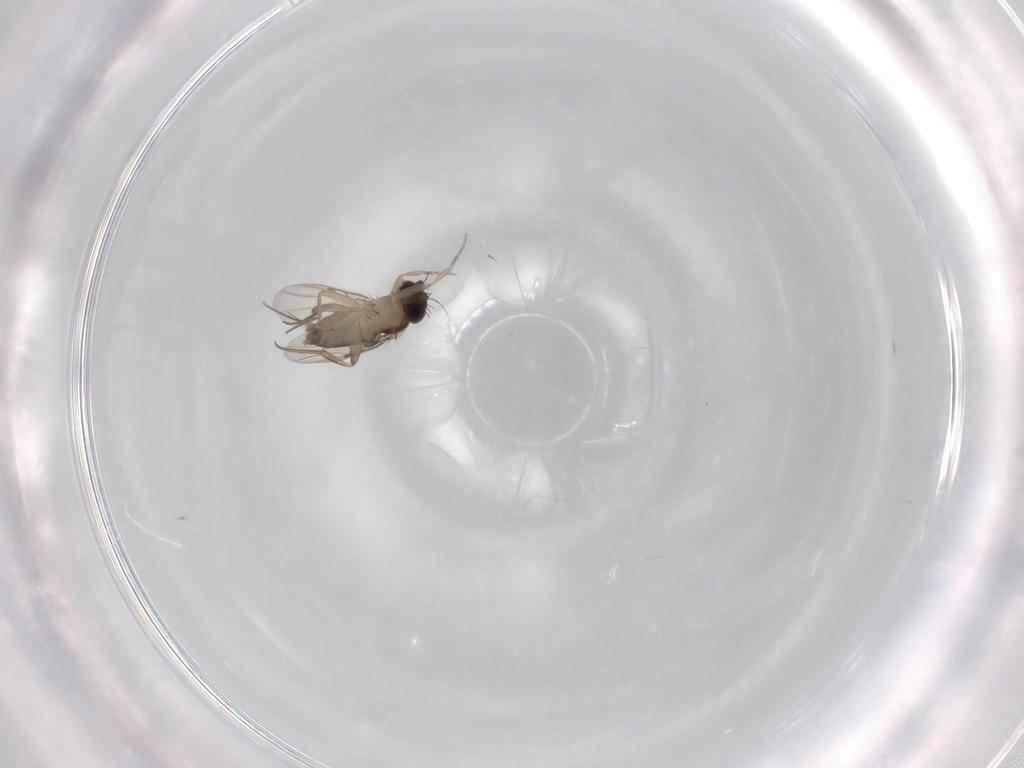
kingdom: Animalia
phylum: Arthropoda
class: Insecta
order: Diptera
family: Phoridae
